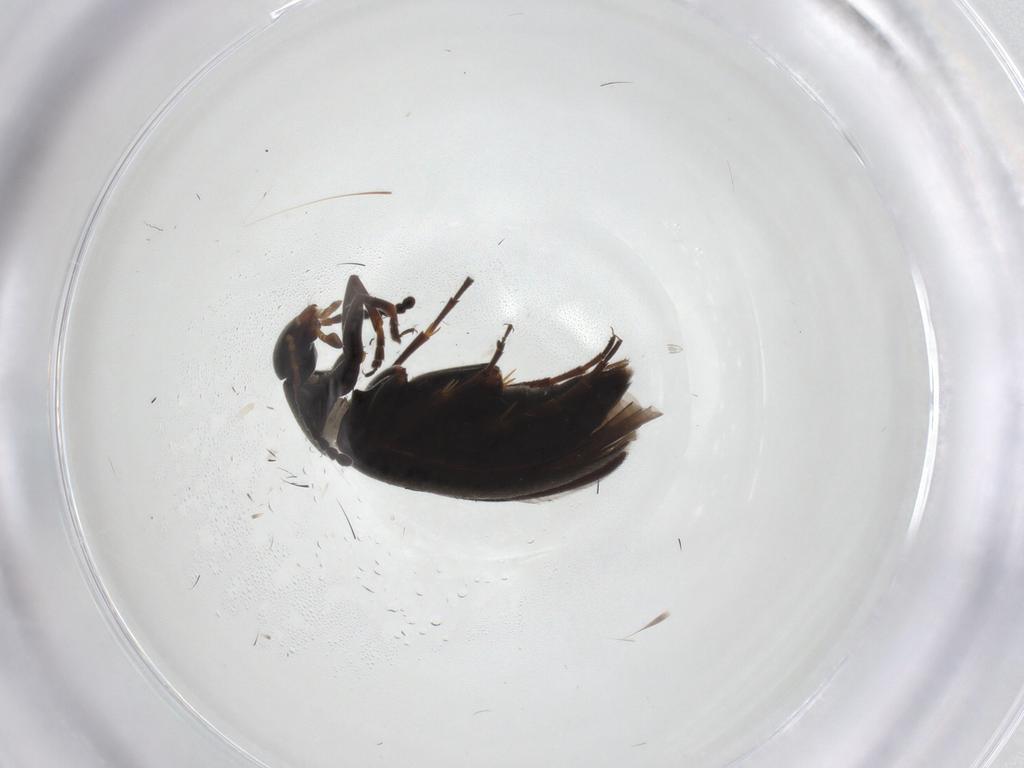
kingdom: Animalia
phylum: Arthropoda
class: Insecta
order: Coleoptera
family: Scraptiidae
